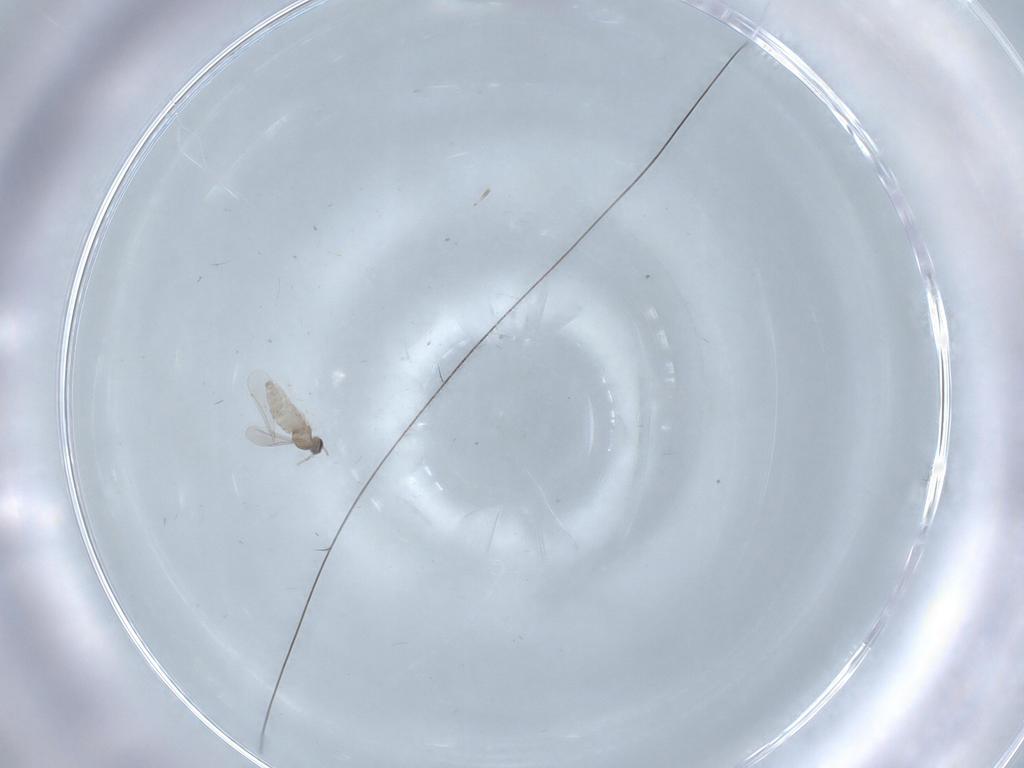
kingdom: Animalia
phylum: Arthropoda
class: Insecta
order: Diptera
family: Cecidomyiidae
